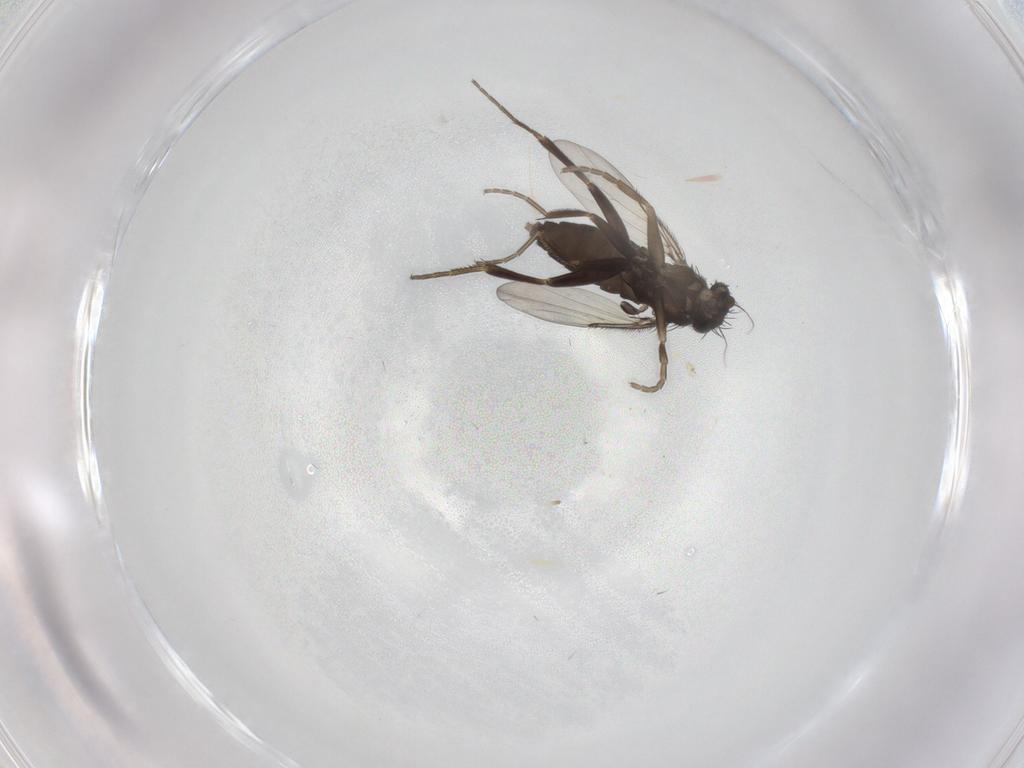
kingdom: Animalia
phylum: Arthropoda
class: Insecta
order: Diptera
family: Phoridae
